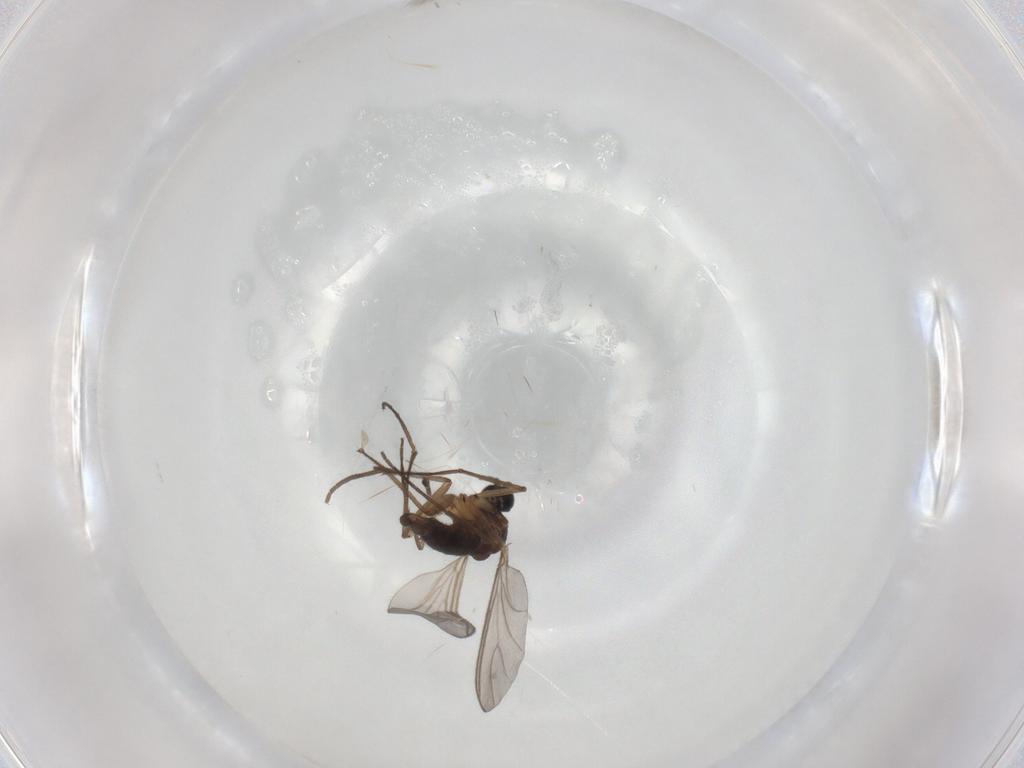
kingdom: Animalia
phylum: Arthropoda
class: Insecta
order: Diptera
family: Sciaridae
